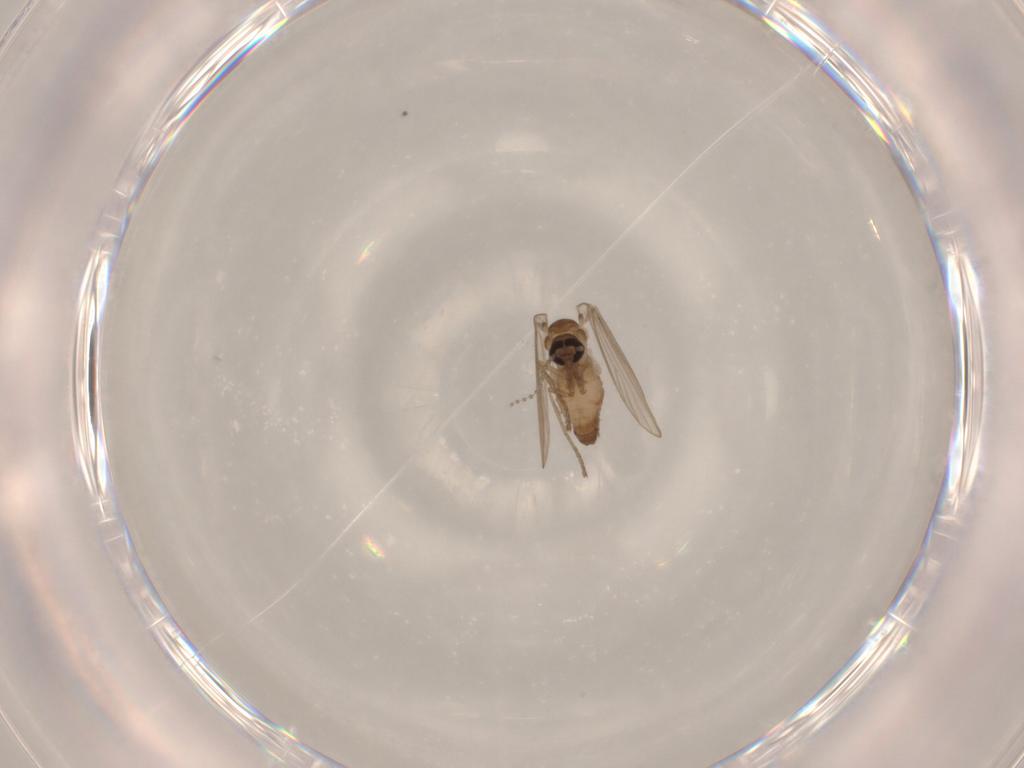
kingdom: Animalia
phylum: Arthropoda
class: Insecta
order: Diptera
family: Psychodidae
